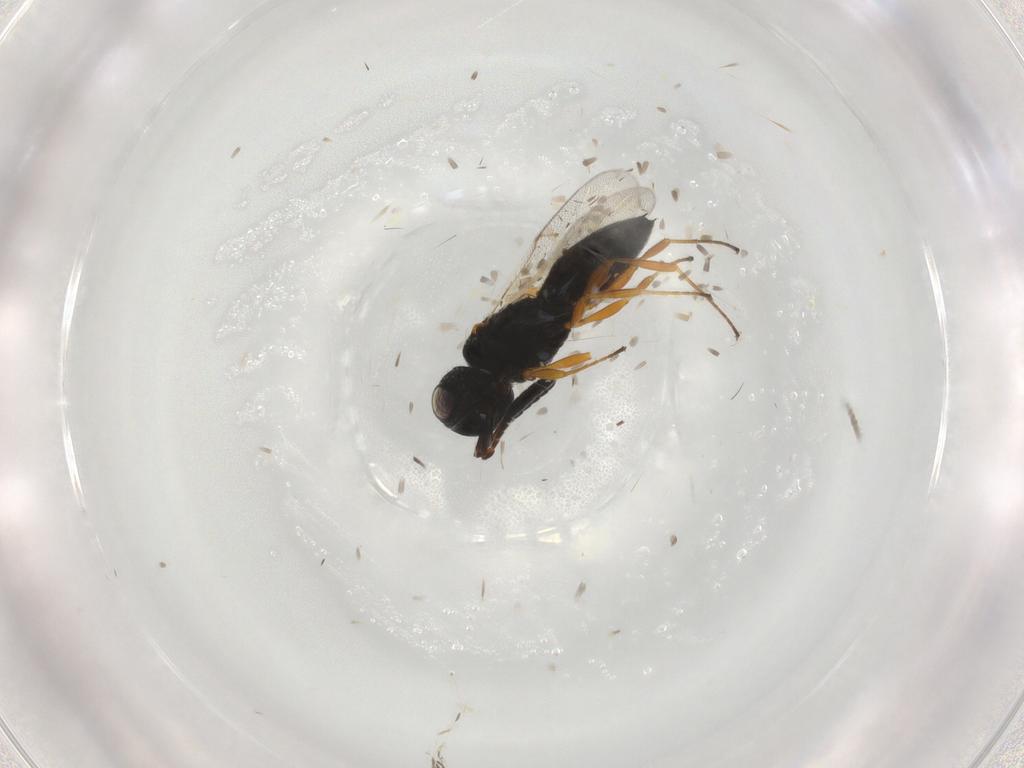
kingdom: Animalia
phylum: Arthropoda
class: Insecta
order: Hymenoptera
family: Scelionidae
